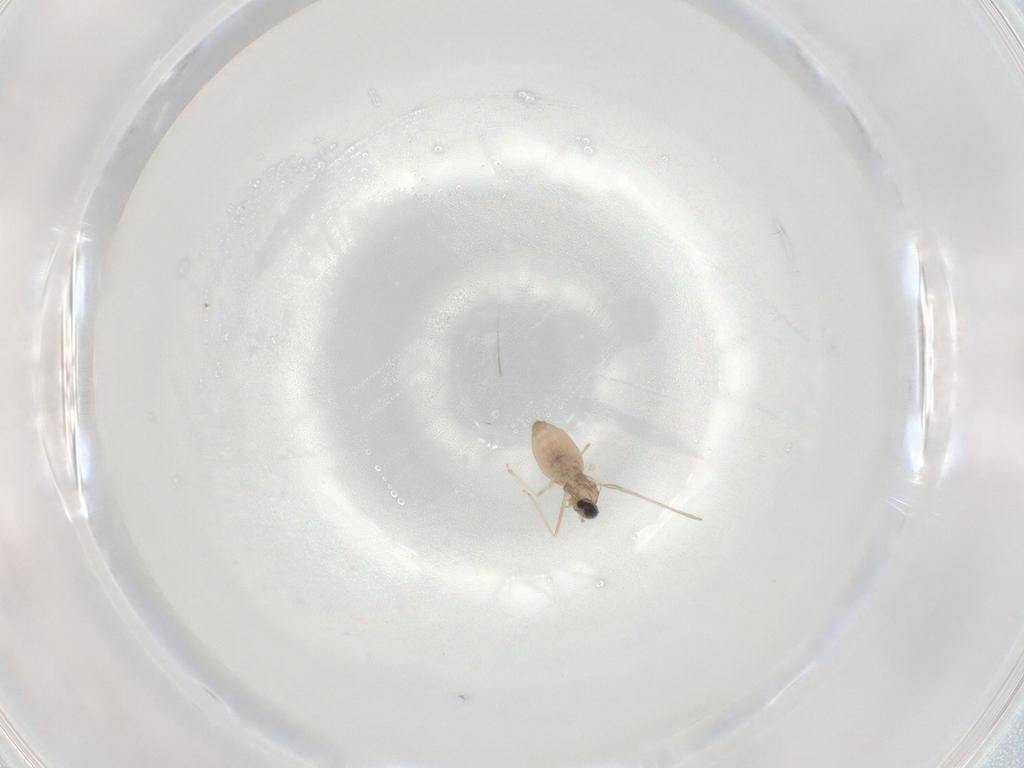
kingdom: Animalia
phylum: Arthropoda
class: Insecta
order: Diptera
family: Cecidomyiidae
